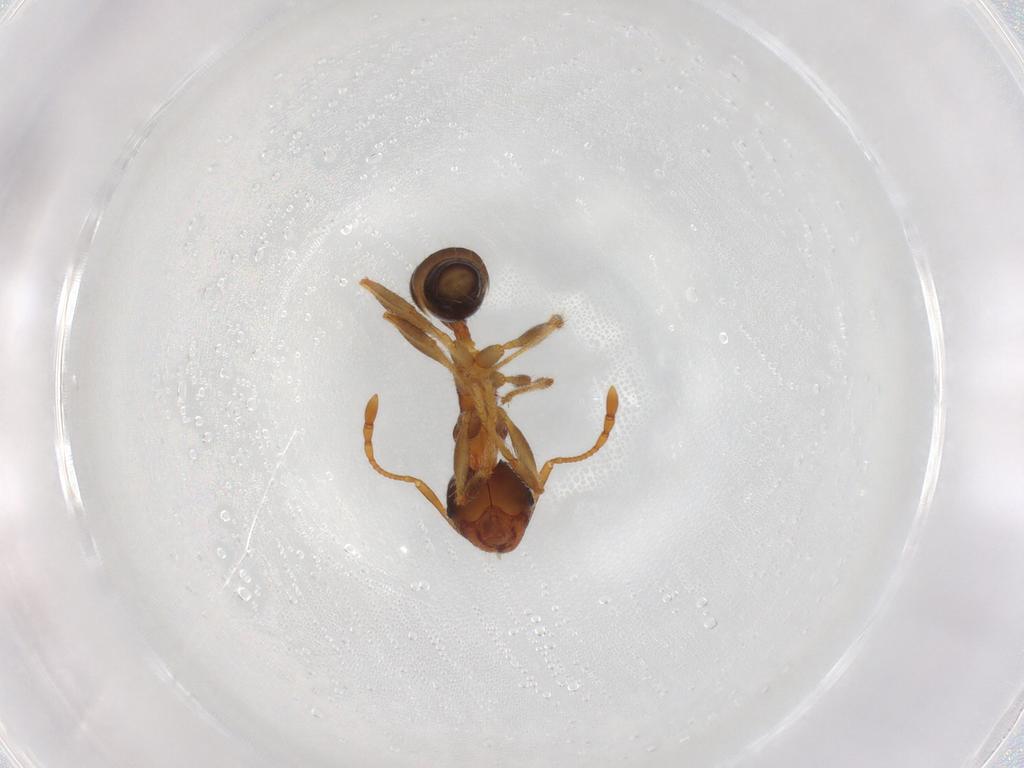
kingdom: Animalia
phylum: Arthropoda
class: Insecta
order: Hymenoptera
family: Formicidae
